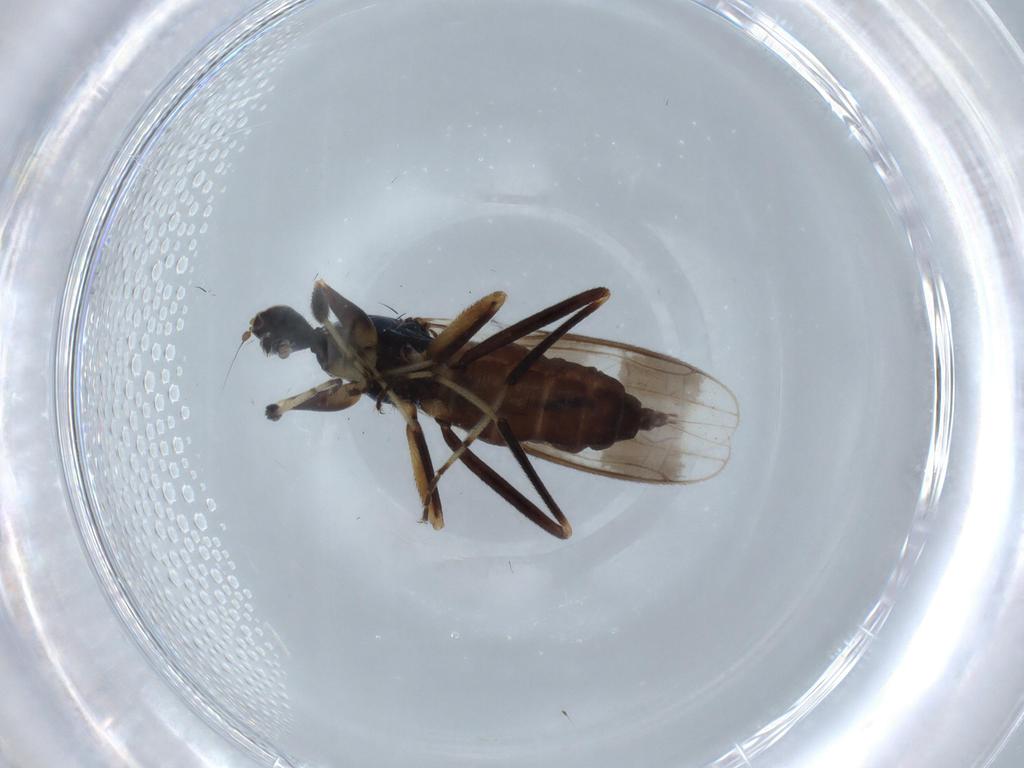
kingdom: Animalia
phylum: Arthropoda
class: Insecta
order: Diptera
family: Hybotidae
